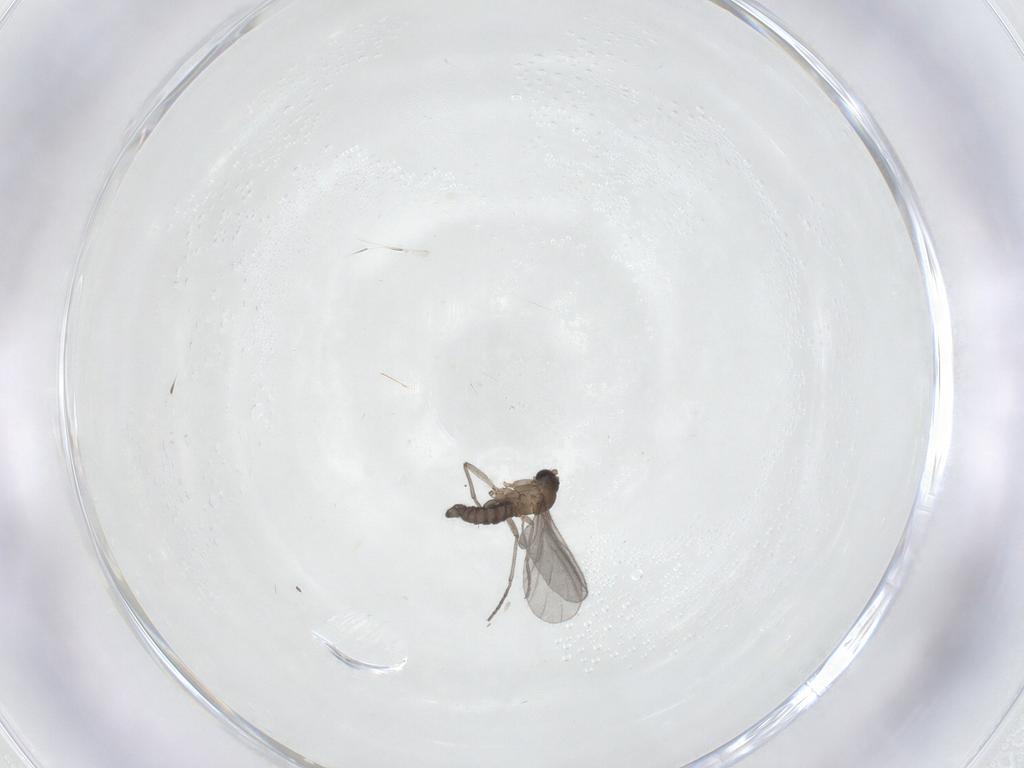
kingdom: Animalia
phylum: Arthropoda
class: Insecta
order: Diptera
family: Sciaridae
